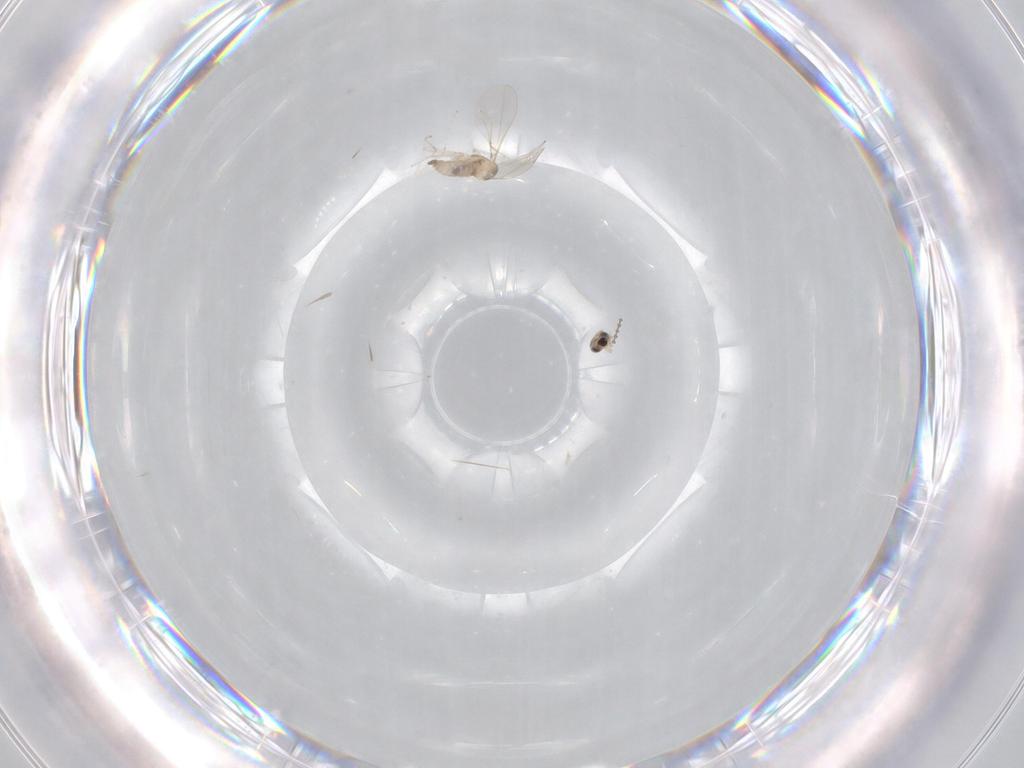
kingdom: Animalia
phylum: Arthropoda
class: Insecta
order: Diptera
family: Cecidomyiidae
